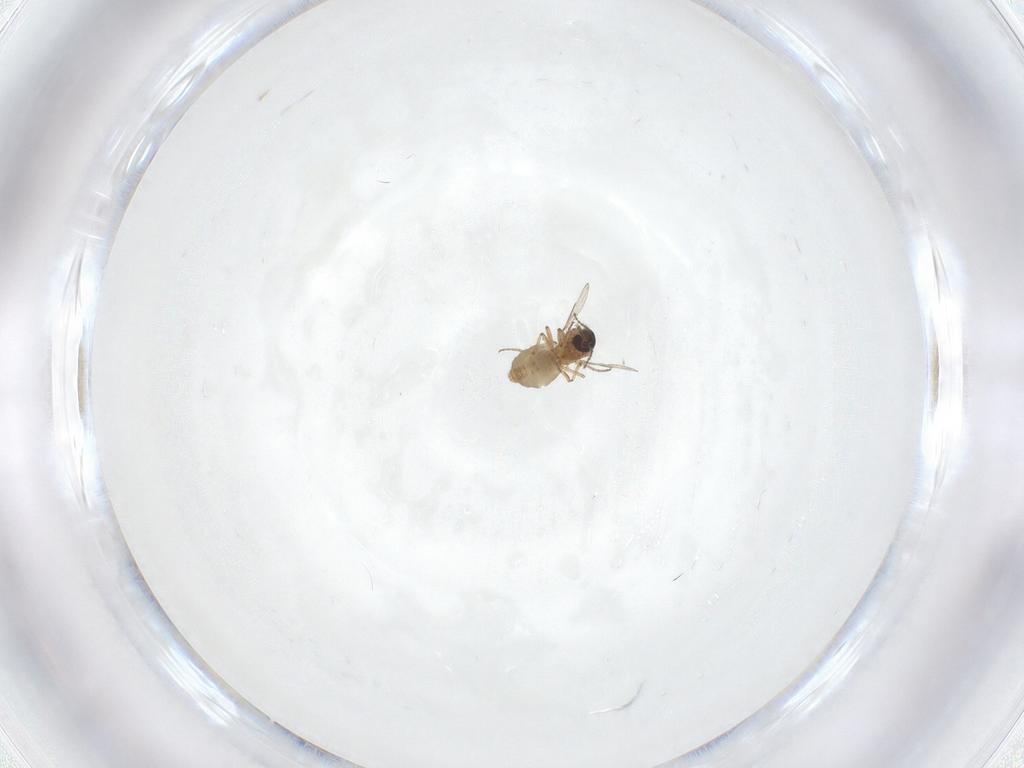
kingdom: Animalia
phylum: Arthropoda
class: Insecta
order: Diptera
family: Ceratopogonidae
